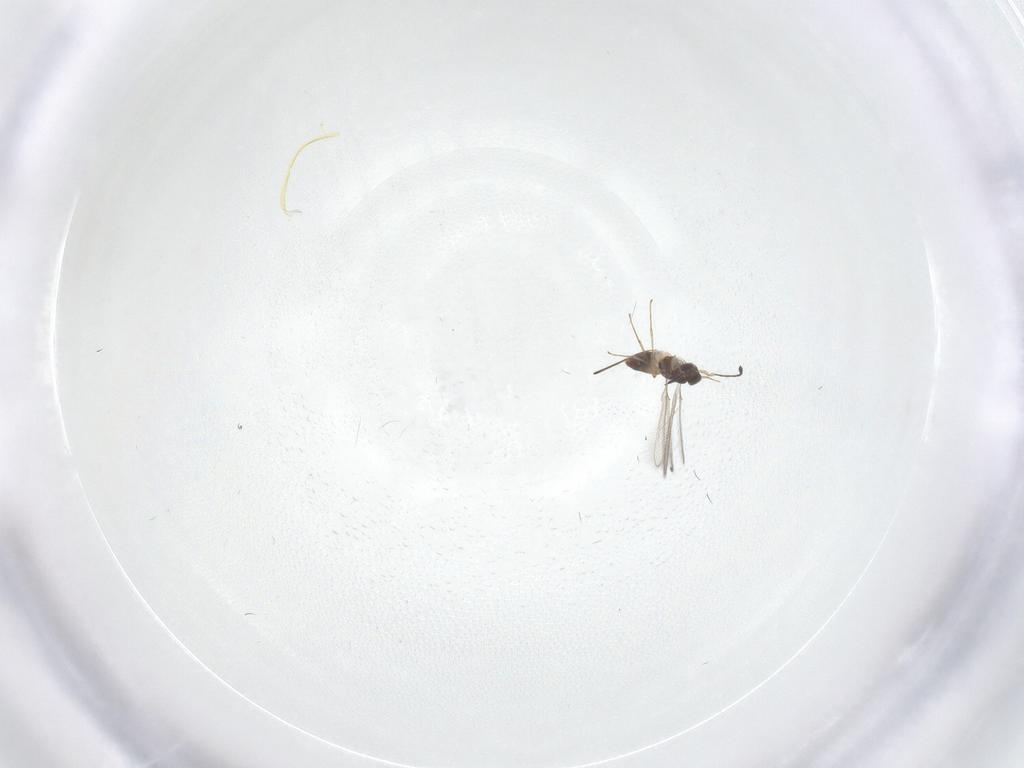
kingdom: Animalia
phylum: Arthropoda
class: Insecta
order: Hymenoptera
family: Mymaridae
